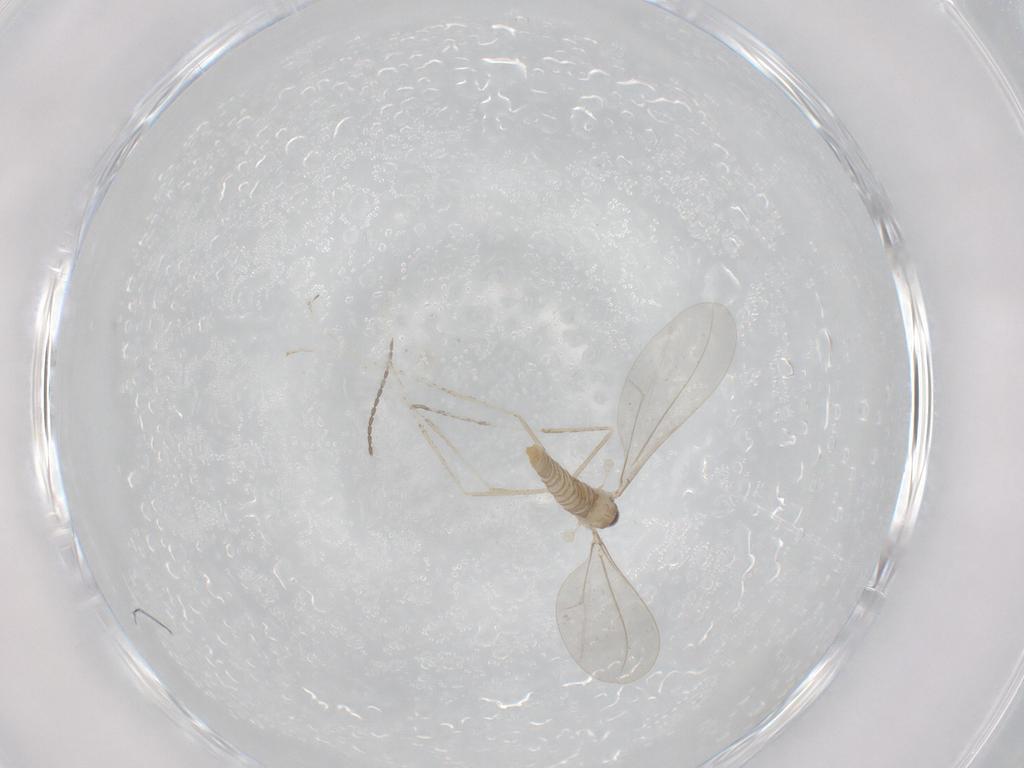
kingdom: Animalia
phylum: Arthropoda
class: Insecta
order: Diptera
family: Cecidomyiidae
